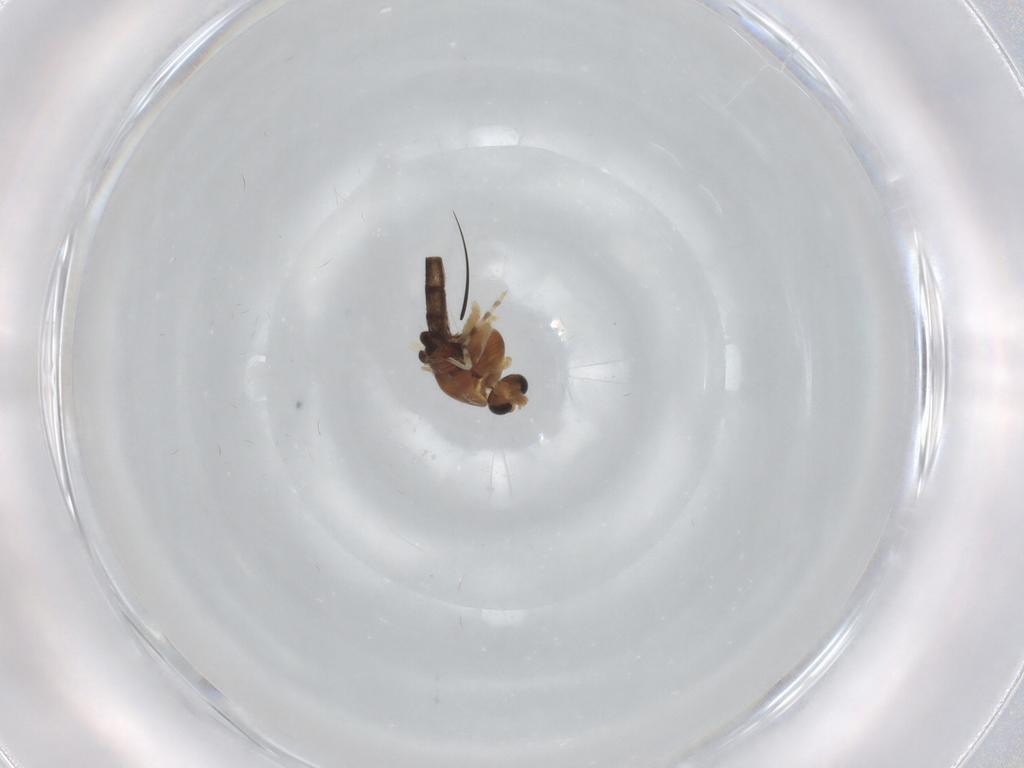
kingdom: Animalia
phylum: Arthropoda
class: Insecta
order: Diptera
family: Chironomidae
